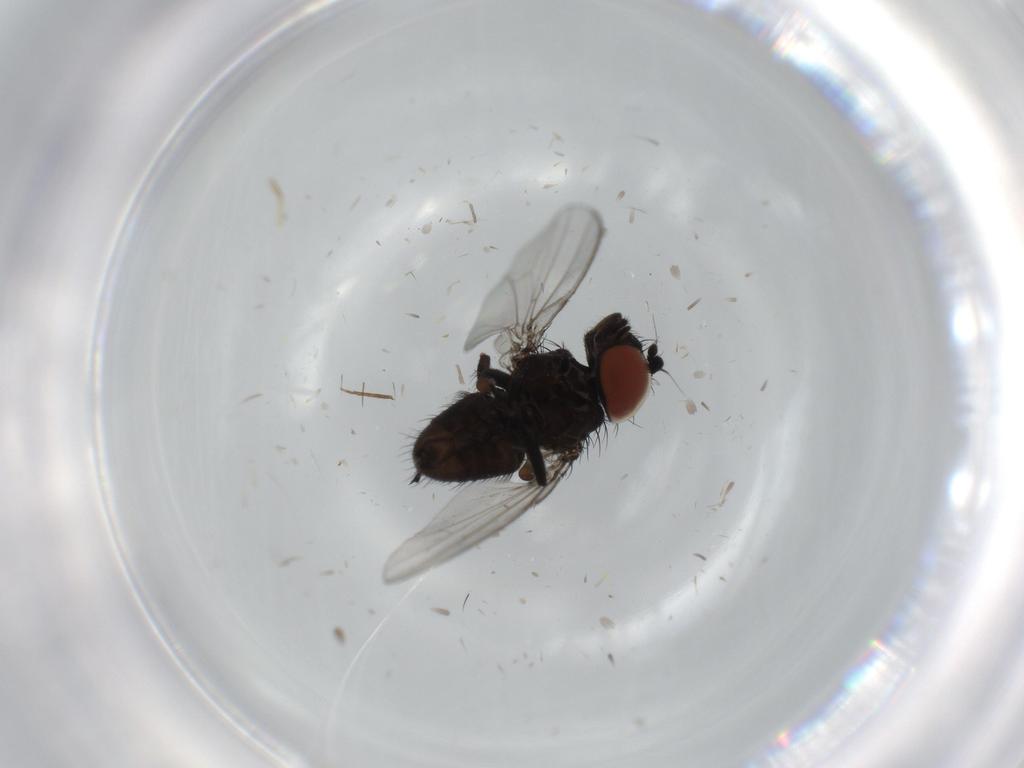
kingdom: Animalia
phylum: Arthropoda
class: Insecta
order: Diptera
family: Milichiidae
